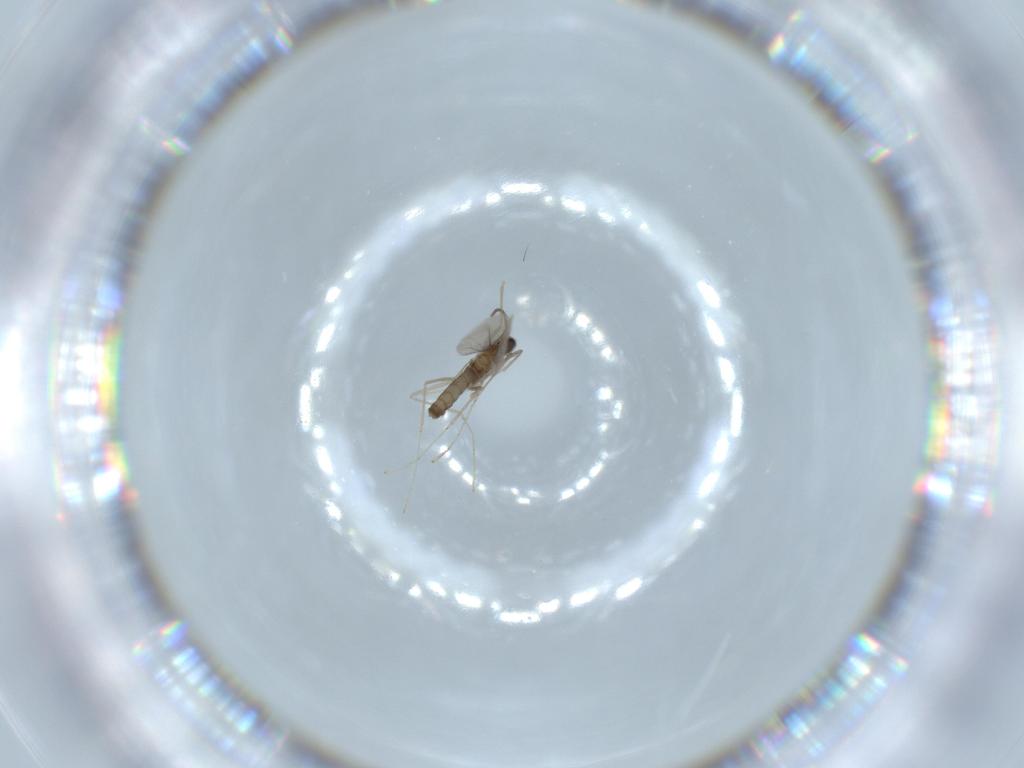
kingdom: Animalia
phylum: Arthropoda
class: Insecta
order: Diptera
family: Cecidomyiidae
